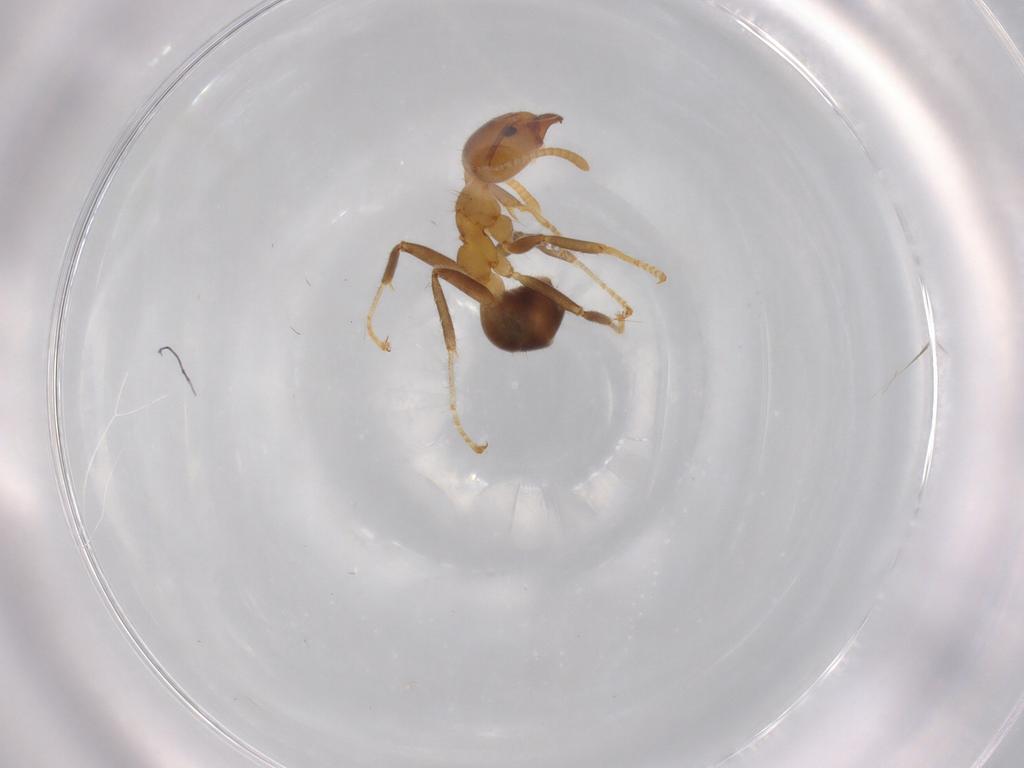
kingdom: Animalia
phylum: Arthropoda
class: Insecta
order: Hymenoptera
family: Formicidae
